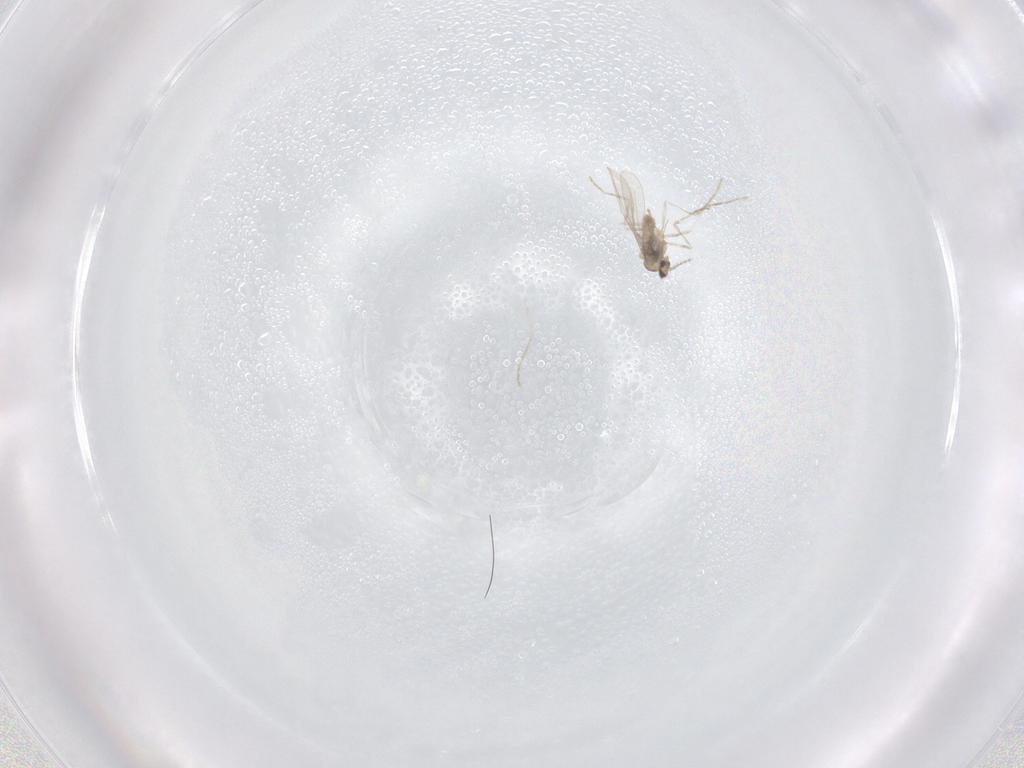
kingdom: Animalia
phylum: Arthropoda
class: Insecta
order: Diptera
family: Cecidomyiidae
